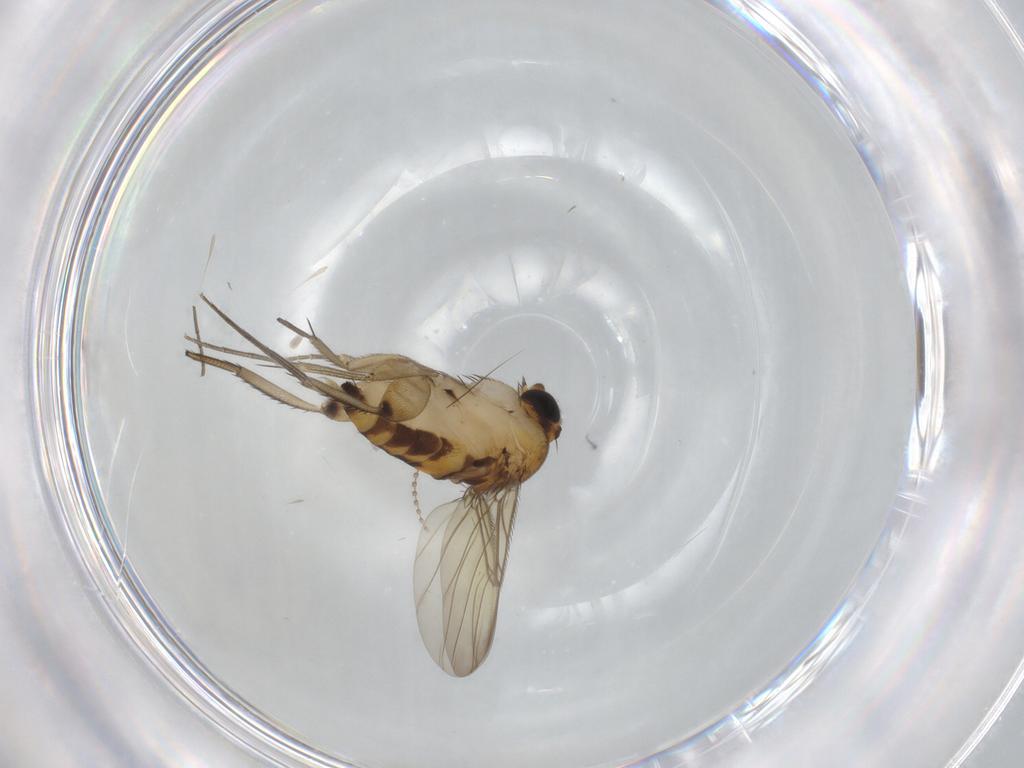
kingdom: Animalia
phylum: Arthropoda
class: Insecta
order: Diptera
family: Phoridae
